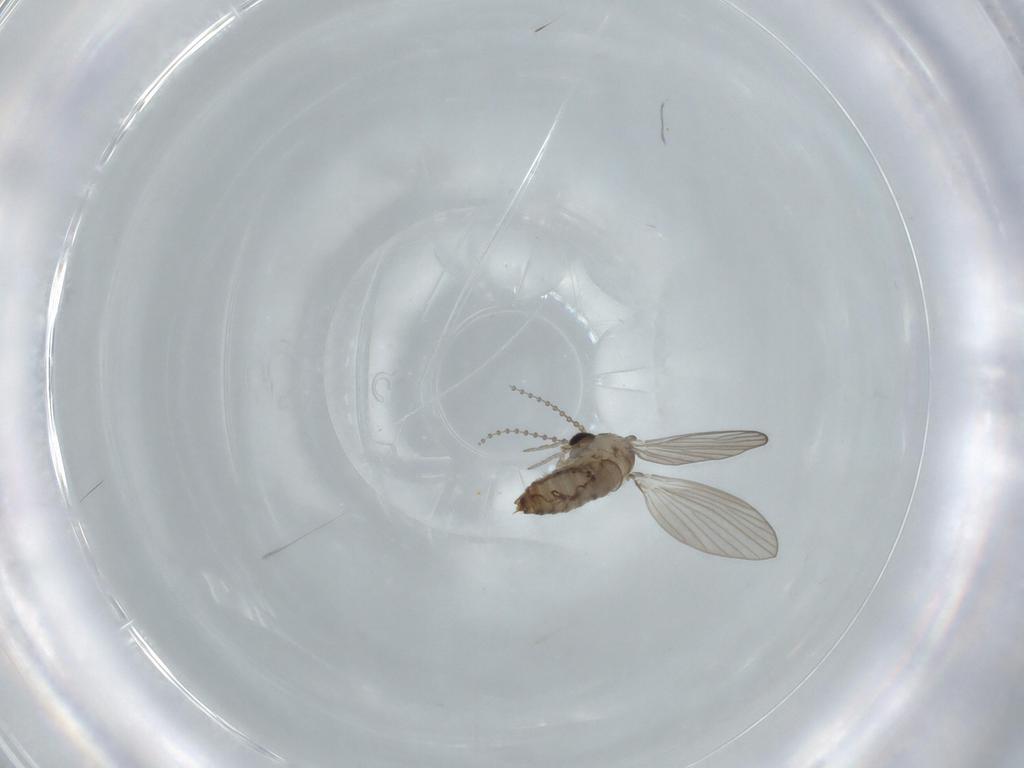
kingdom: Animalia
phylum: Arthropoda
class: Insecta
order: Diptera
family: Psychodidae
